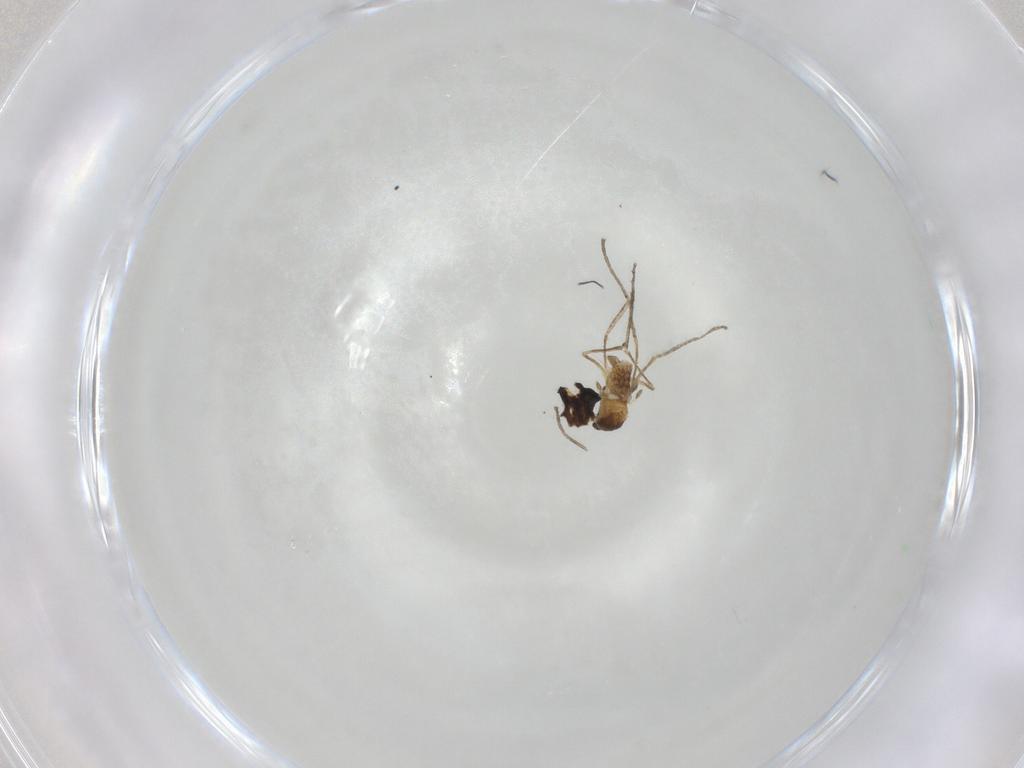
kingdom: Animalia
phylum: Arthropoda
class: Insecta
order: Diptera
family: Cecidomyiidae
